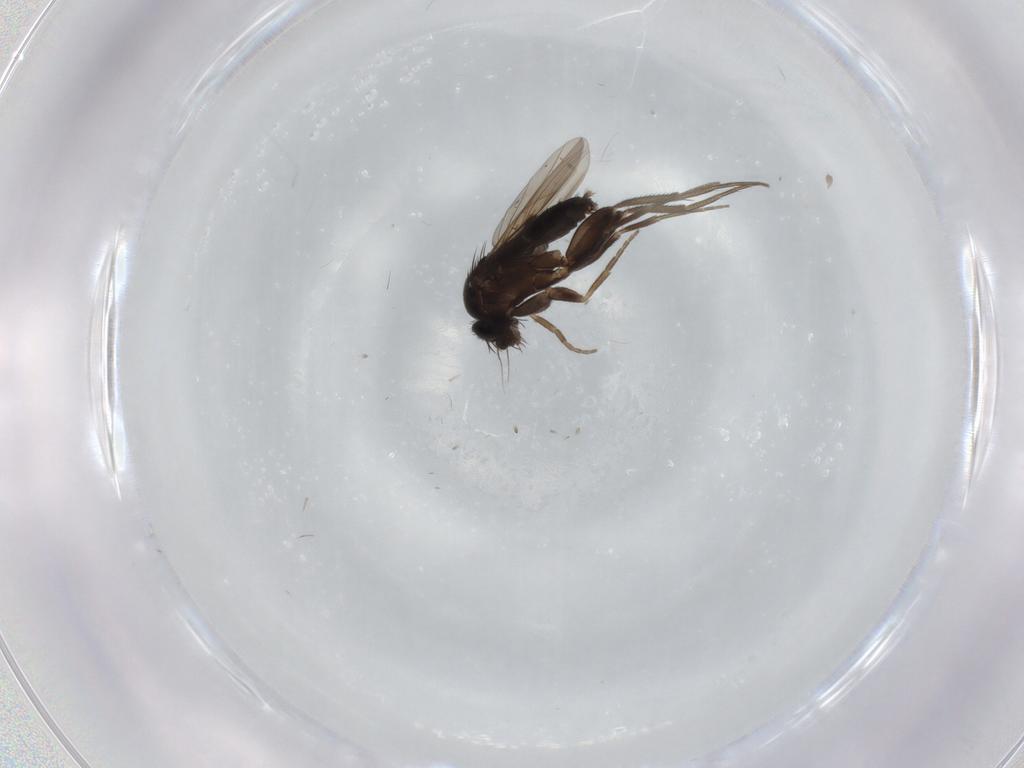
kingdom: Animalia
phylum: Arthropoda
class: Insecta
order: Diptera
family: Phoridae
